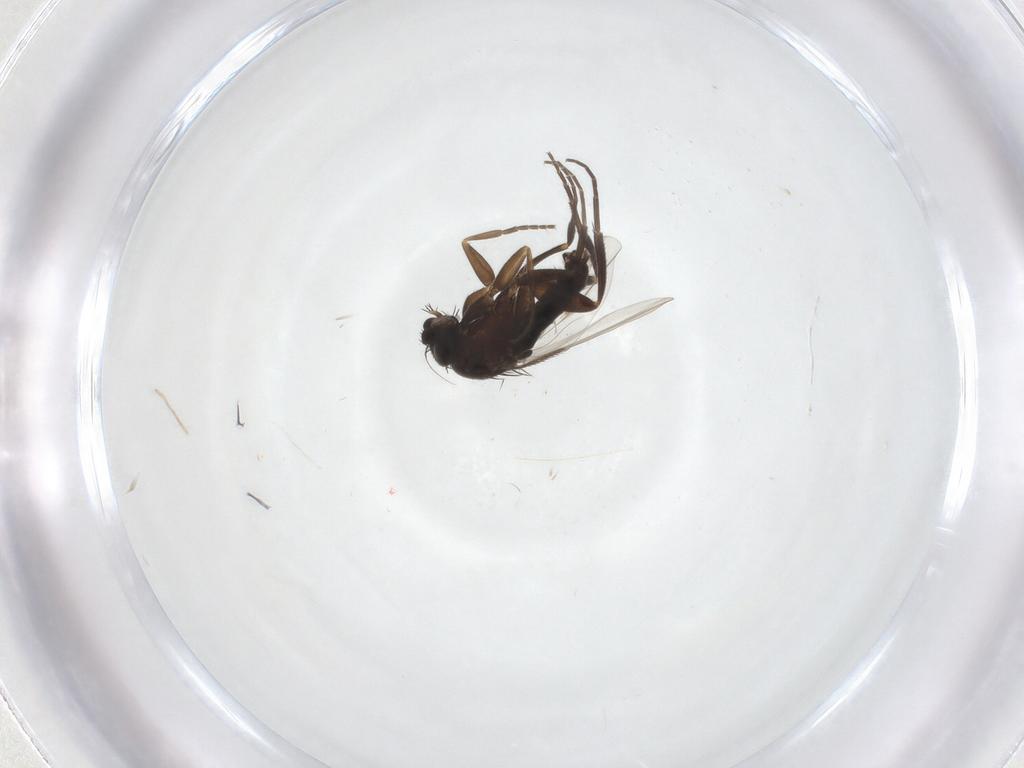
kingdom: Animalia
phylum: Arthropoda
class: Insecta
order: Diptera
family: Phoridae
